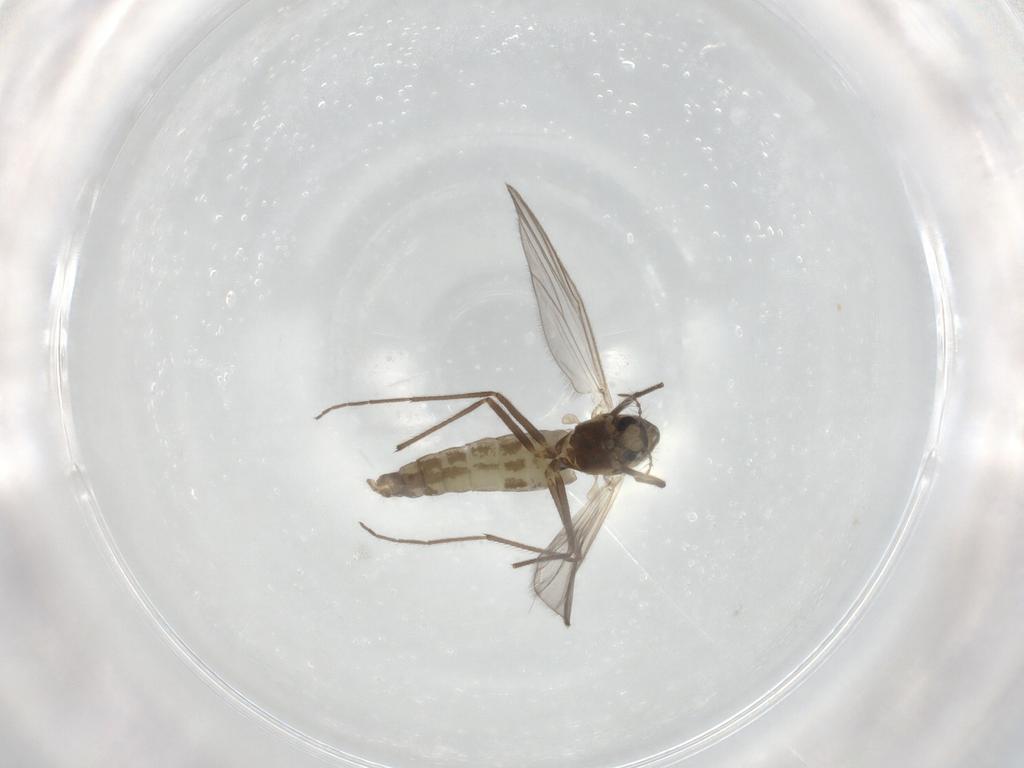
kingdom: Animalia
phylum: Arthropoda
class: Insecta
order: Diptera
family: Chironomidae
